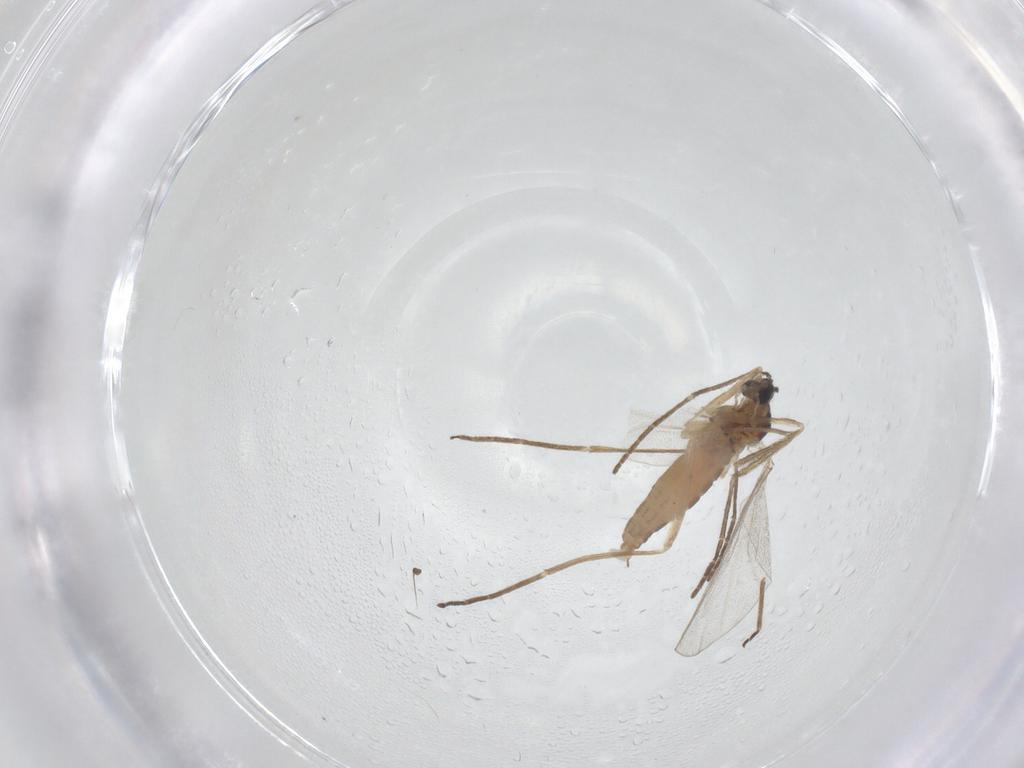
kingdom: Animalia
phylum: Arthropoda
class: Insecta
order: Diptera
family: Cecidomyiidae
